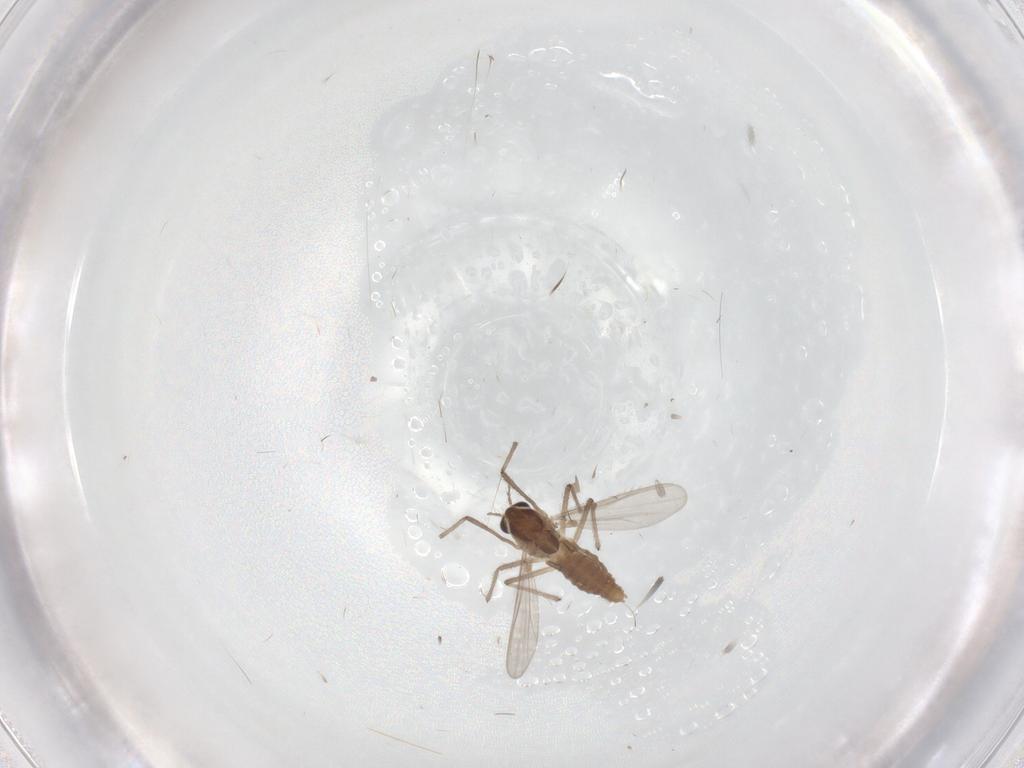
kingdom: Animalia
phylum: Arthropoda
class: Insecta
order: Diptera
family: Chironomidae
